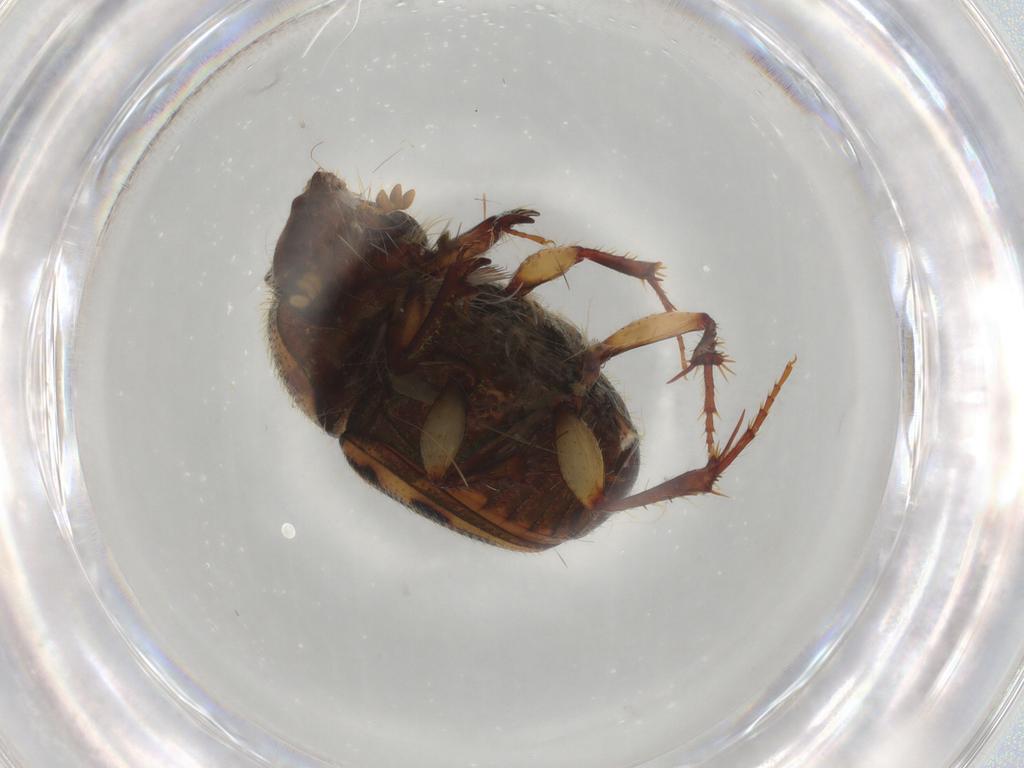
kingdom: Animalia
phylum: Arthropoda
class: Insecta
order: Coleoptera
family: Scarabaeidae
